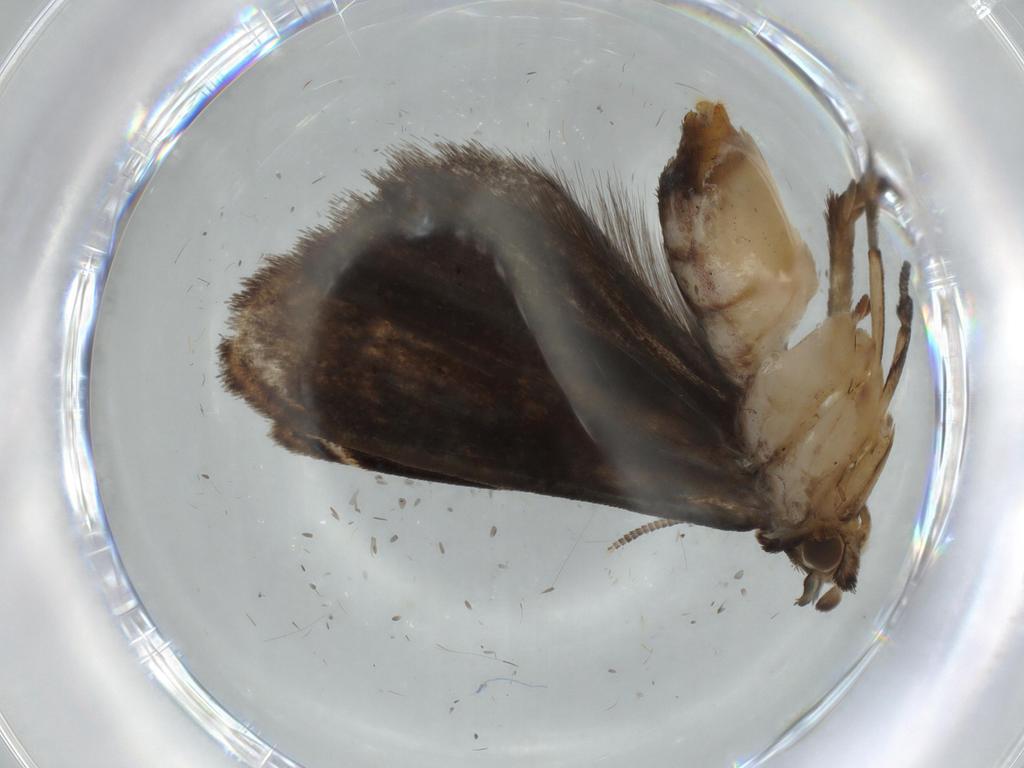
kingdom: Animalia
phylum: Arthropoda
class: Insecta
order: Lepidoptera
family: Dryadaulidae
